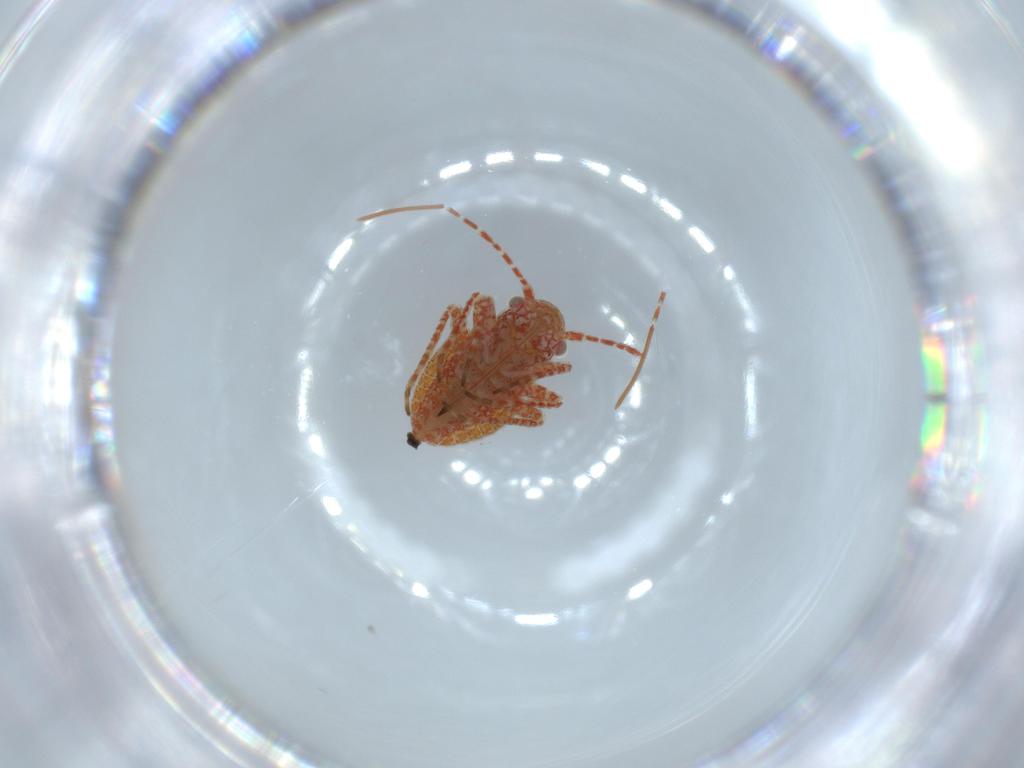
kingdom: Animalia
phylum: Arthropoda
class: Insecta
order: Hemiptera
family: Miridae
